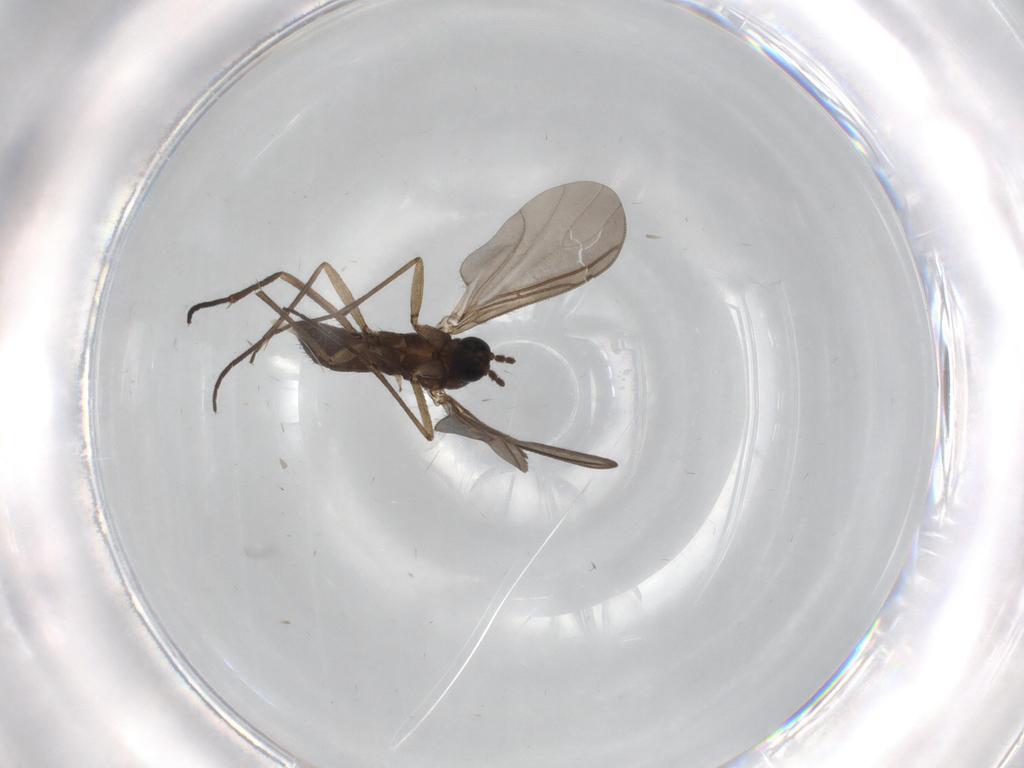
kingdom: Animalia
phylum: Arthropoda
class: Insecta
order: Diptera
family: Sciaridae
